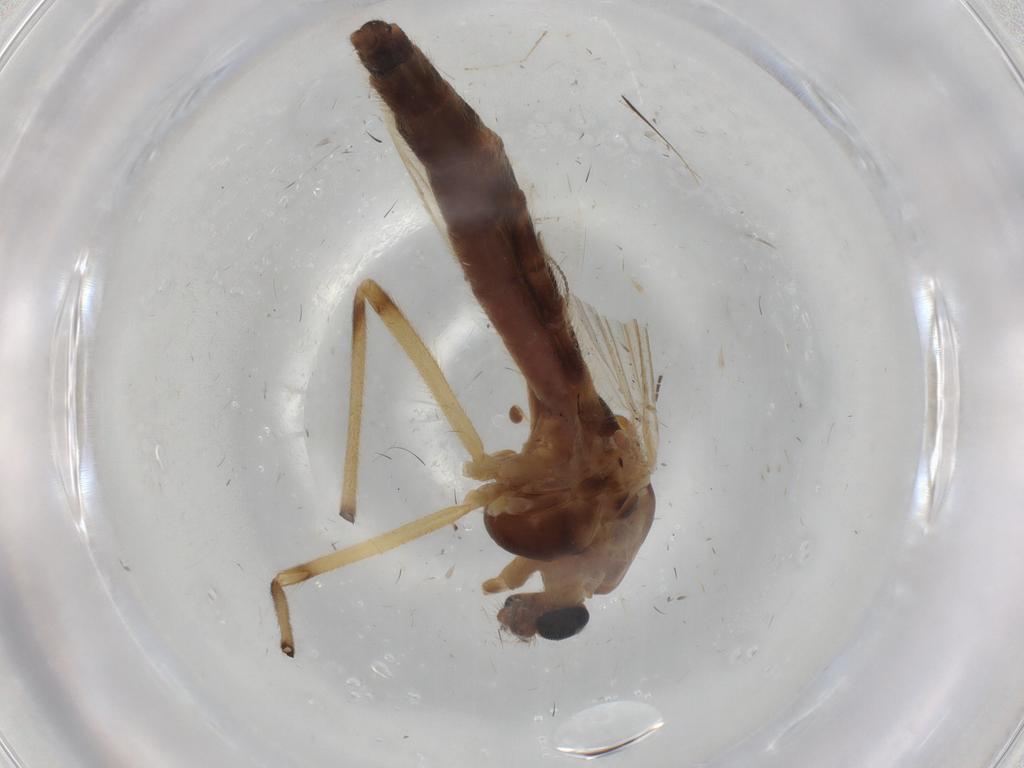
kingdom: Animalia
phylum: Arthropoda
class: Insecta
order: Diptera
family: Chironomidae
